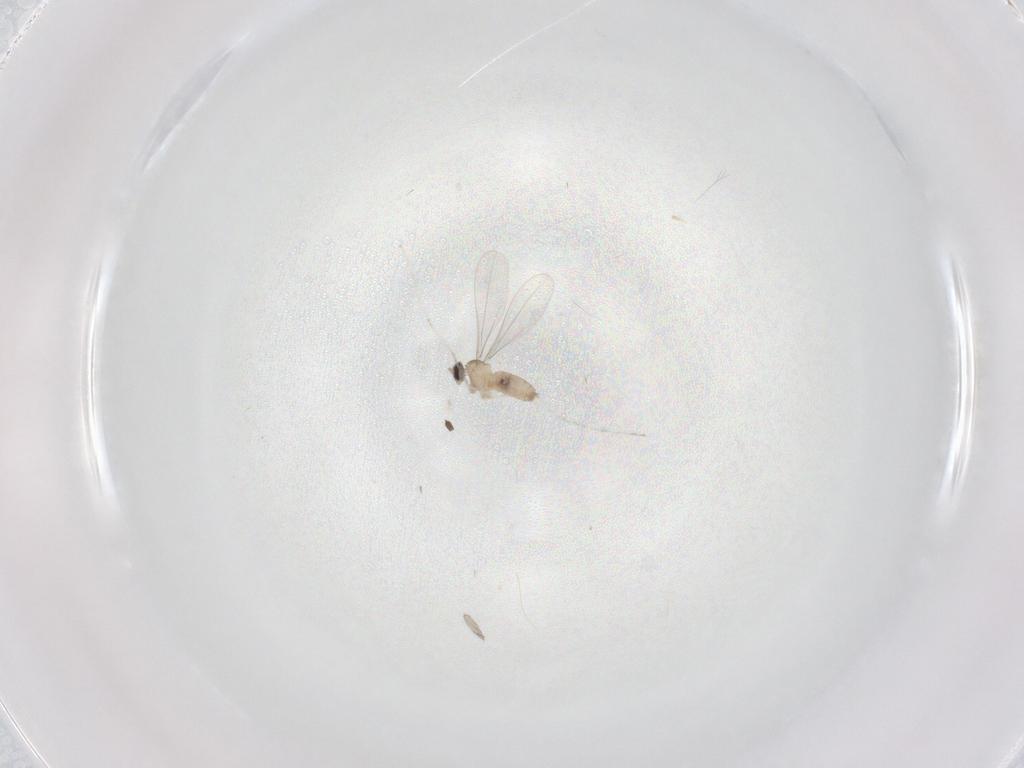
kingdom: Animalia
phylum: Arthropoda
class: Insecta
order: Diptera
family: Cecidomyiidae
